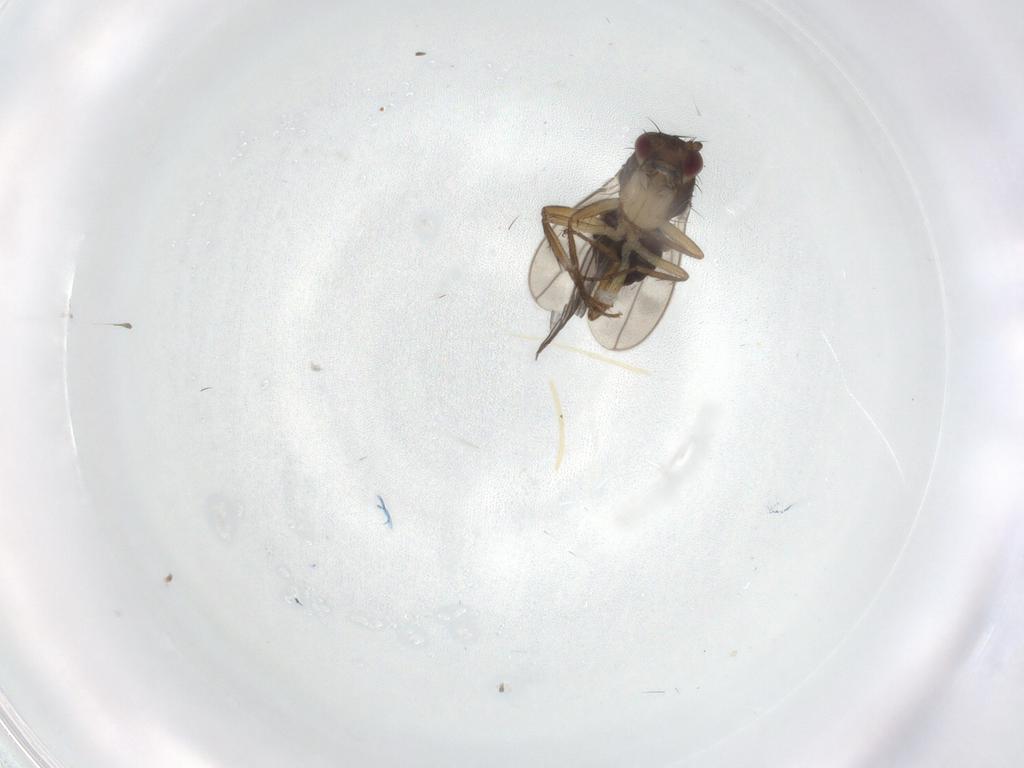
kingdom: Animalia
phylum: Arthropoda
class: Insecta
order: Diptera
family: Sphaeroceridae
